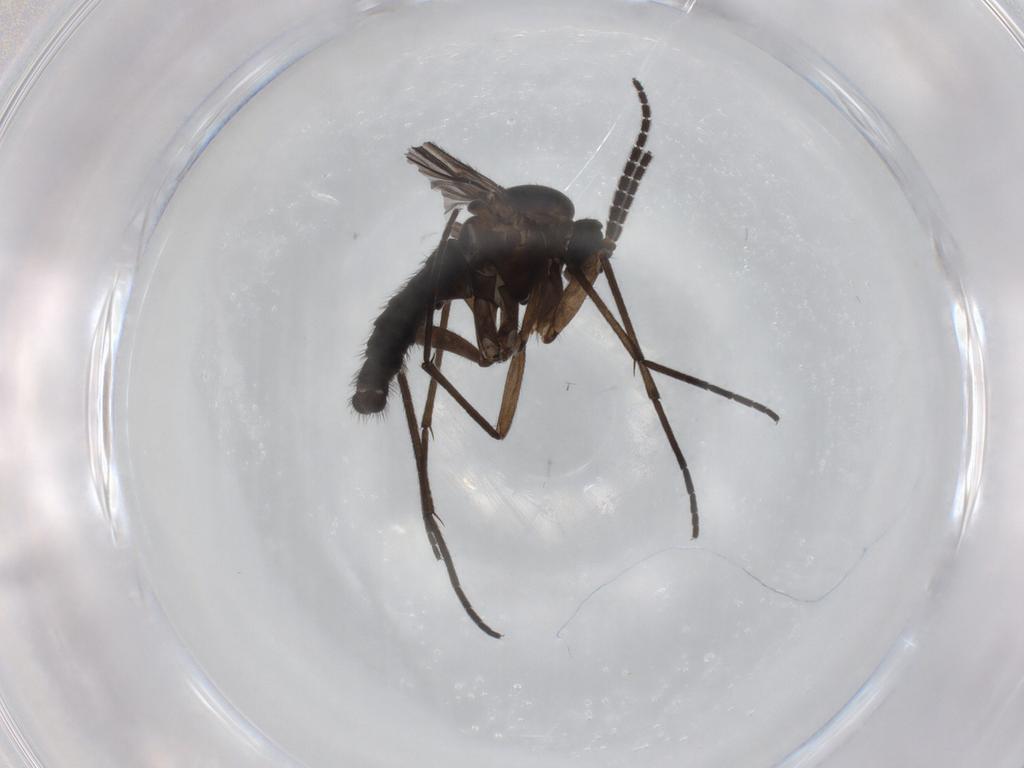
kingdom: Animalia
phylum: Arthropoda
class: Insecta
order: Diptera
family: Sciaridae
